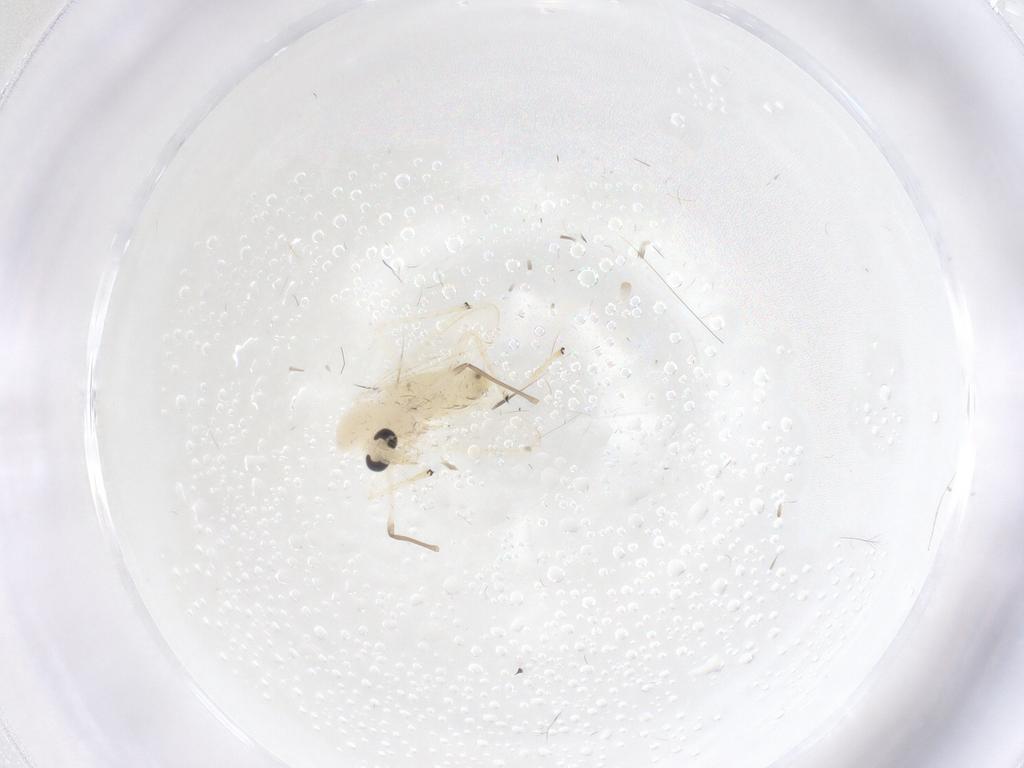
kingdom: Animalia
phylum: Arthropoda
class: Insecta
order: Diptera
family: Chironomidae
